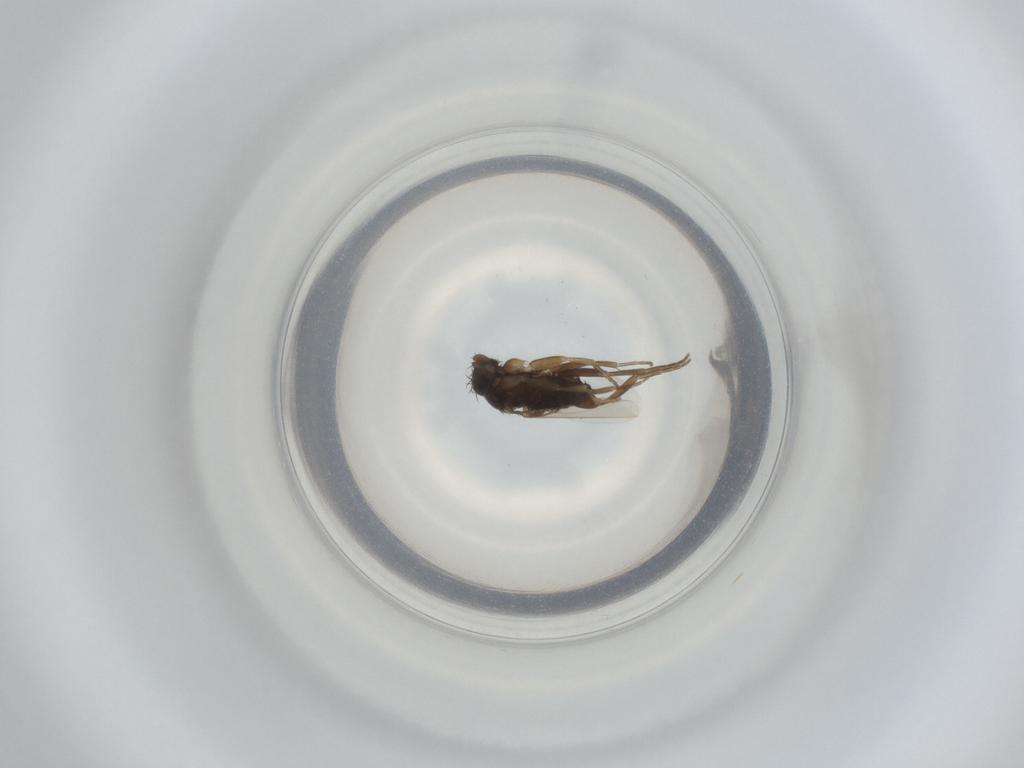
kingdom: Animalia
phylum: Arthropoda
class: Insecta
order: Diptera
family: Phoridae
